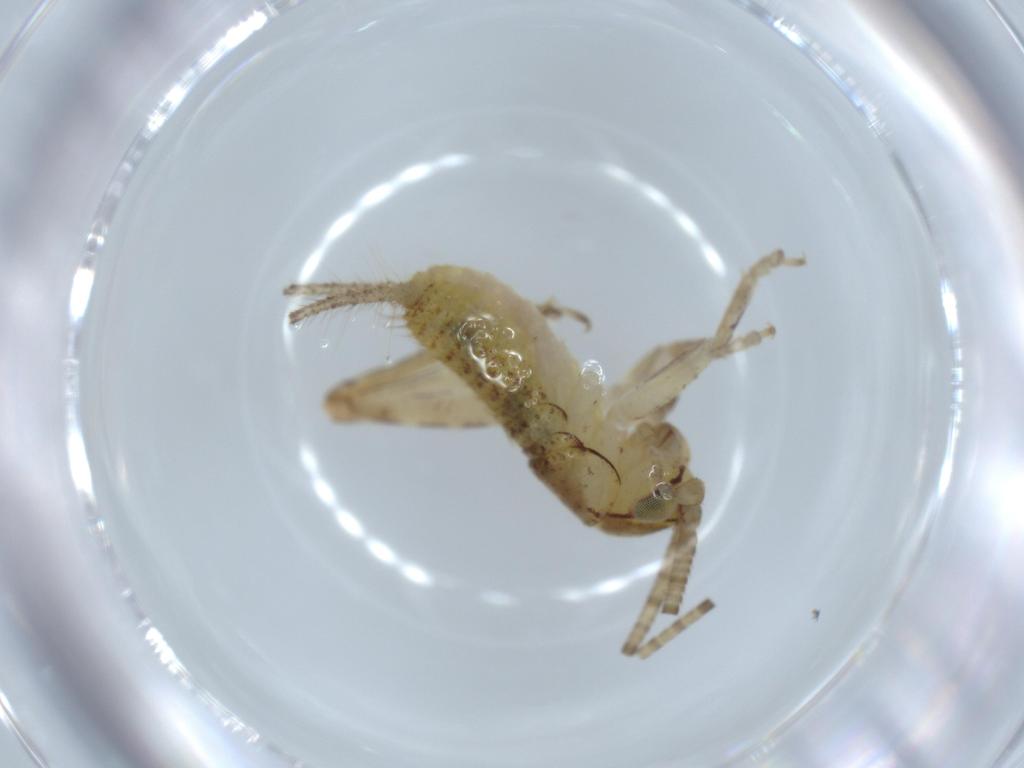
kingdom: Animalia
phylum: Arthropoda
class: Insecta
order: Orthoptera
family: Gryllidae
